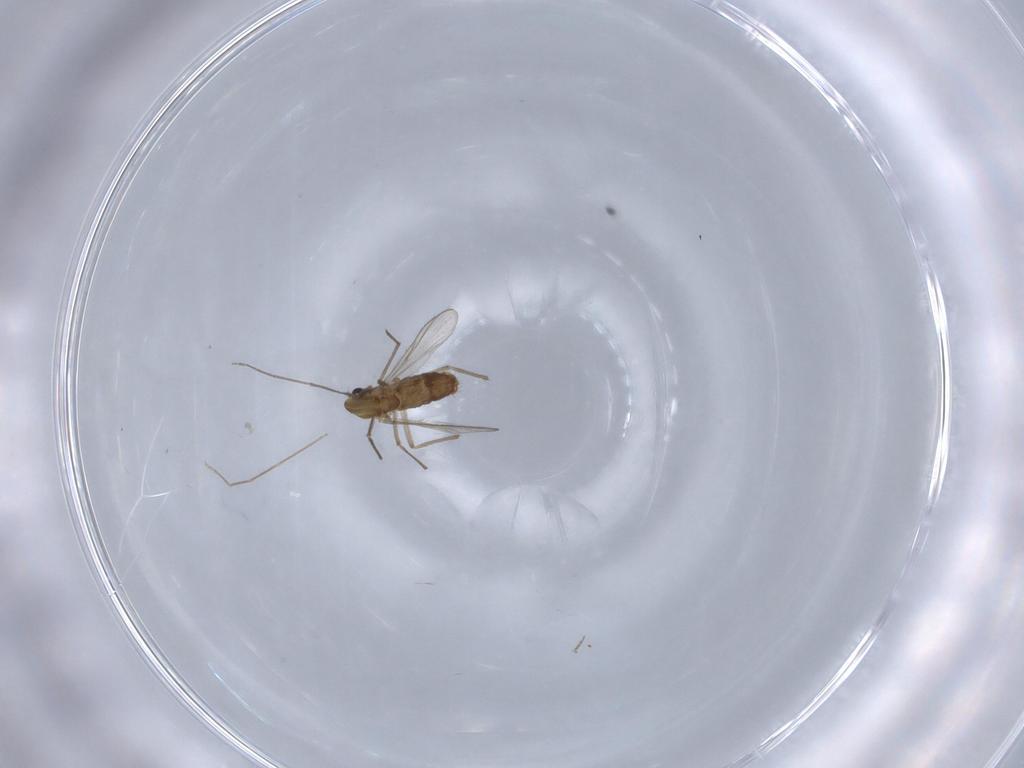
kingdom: Animalia
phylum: Arthropoda
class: Insecta
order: Diptera
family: Chironomidae
